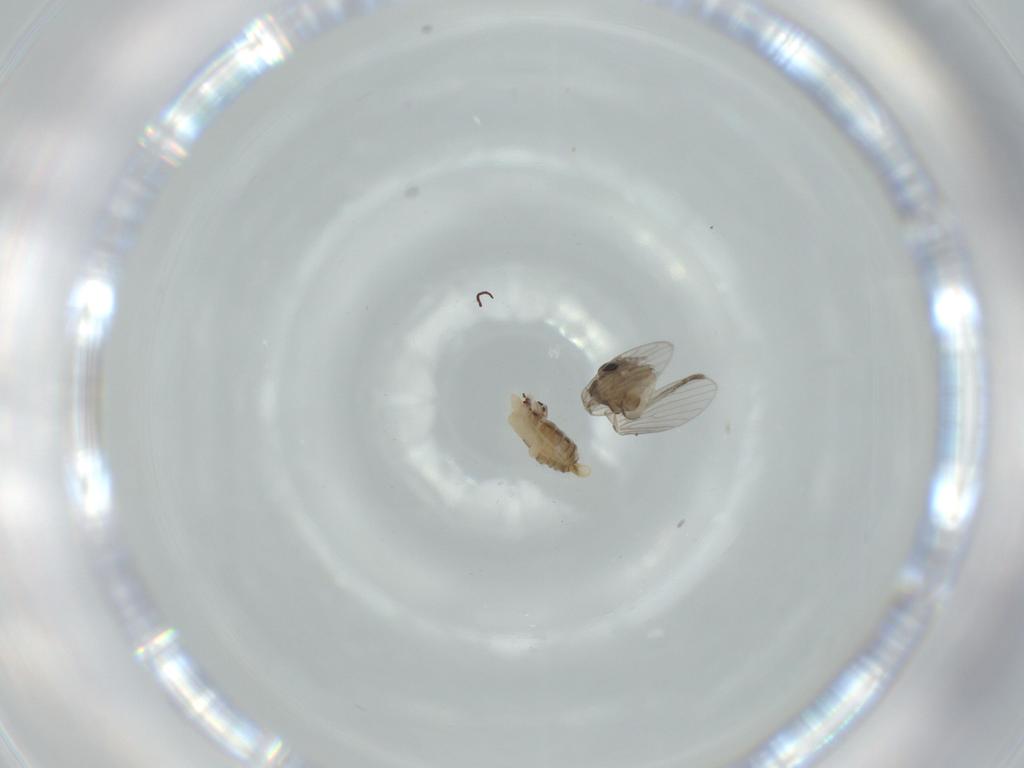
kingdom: Animalia
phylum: Arthropoda
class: Insecta
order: Diptera
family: Psychodidae
